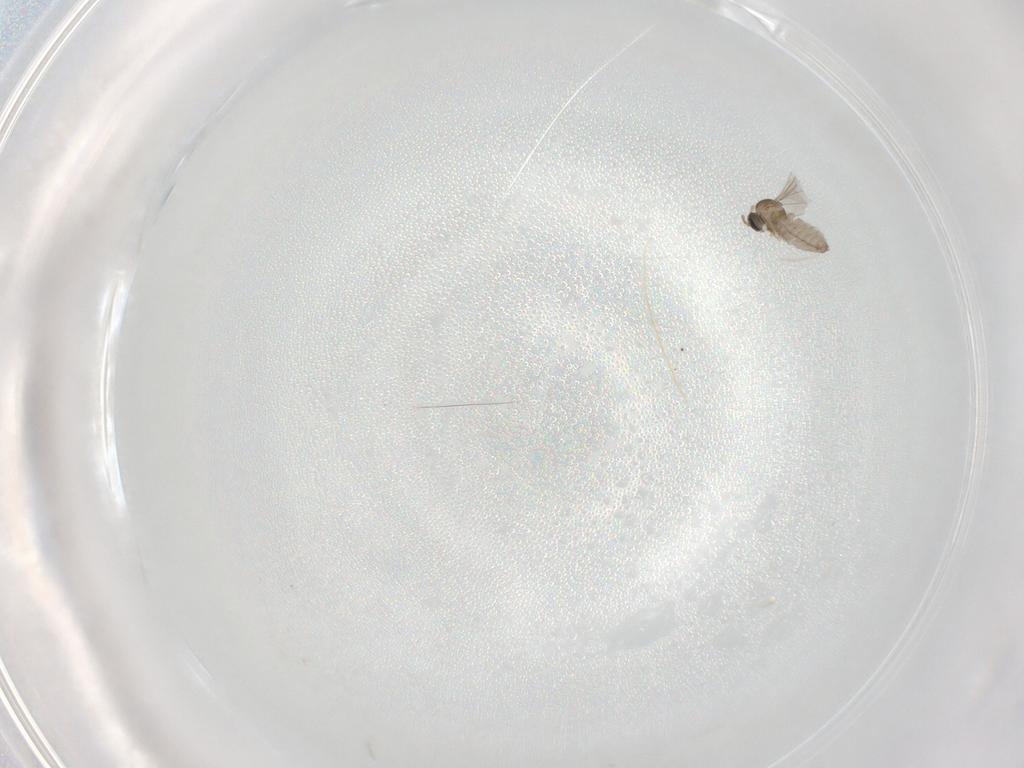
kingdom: Animalia
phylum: Arthropoda
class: Insecta
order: Diptera
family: Cecidomyiidae
